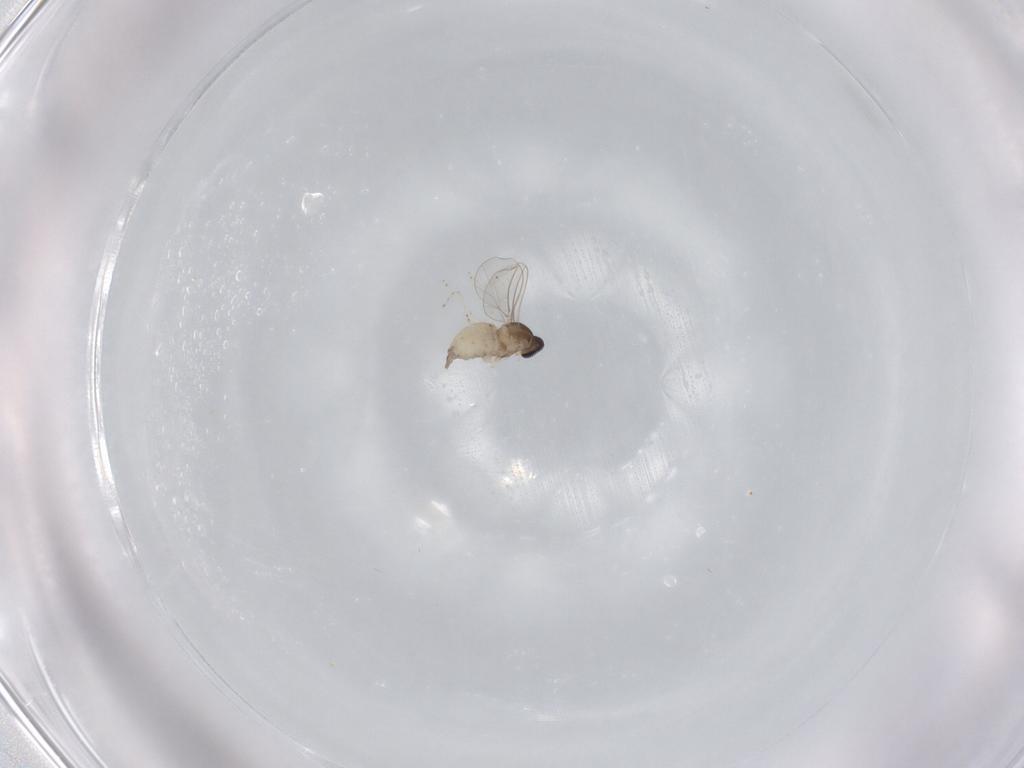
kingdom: Animalia
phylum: Arthropoda
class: Insecta
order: Diptera
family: Cecidomyiidae
